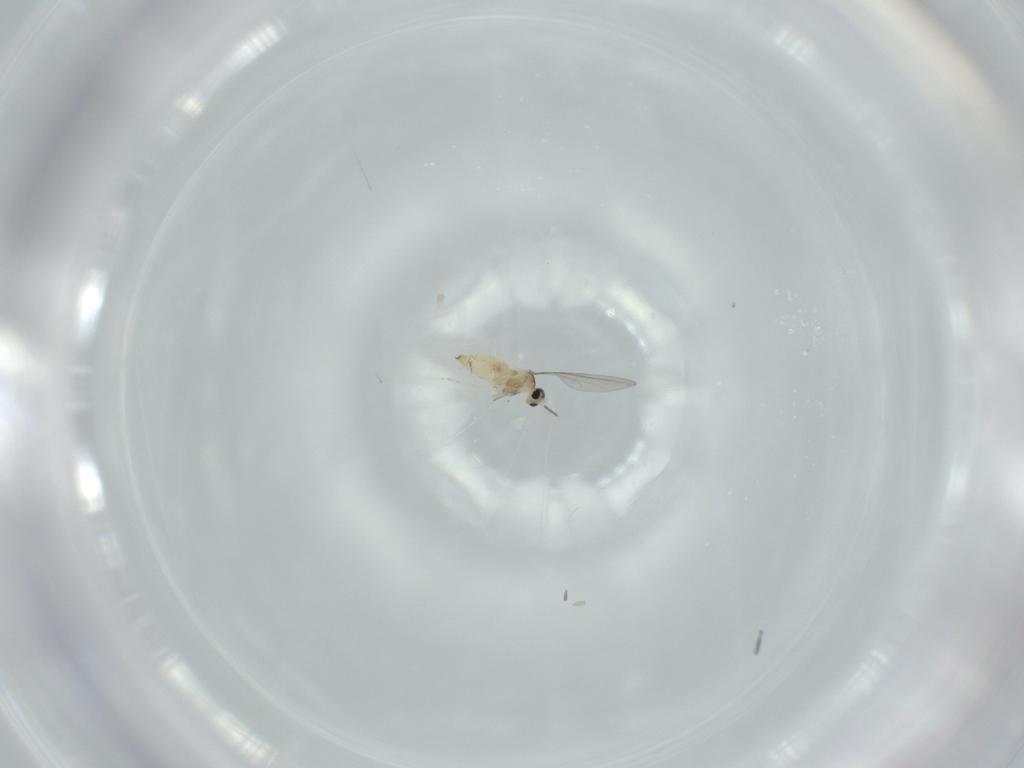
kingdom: Animalia
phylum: Arthropoda
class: Insecta
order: Diptera
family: Cecidomyiidae
